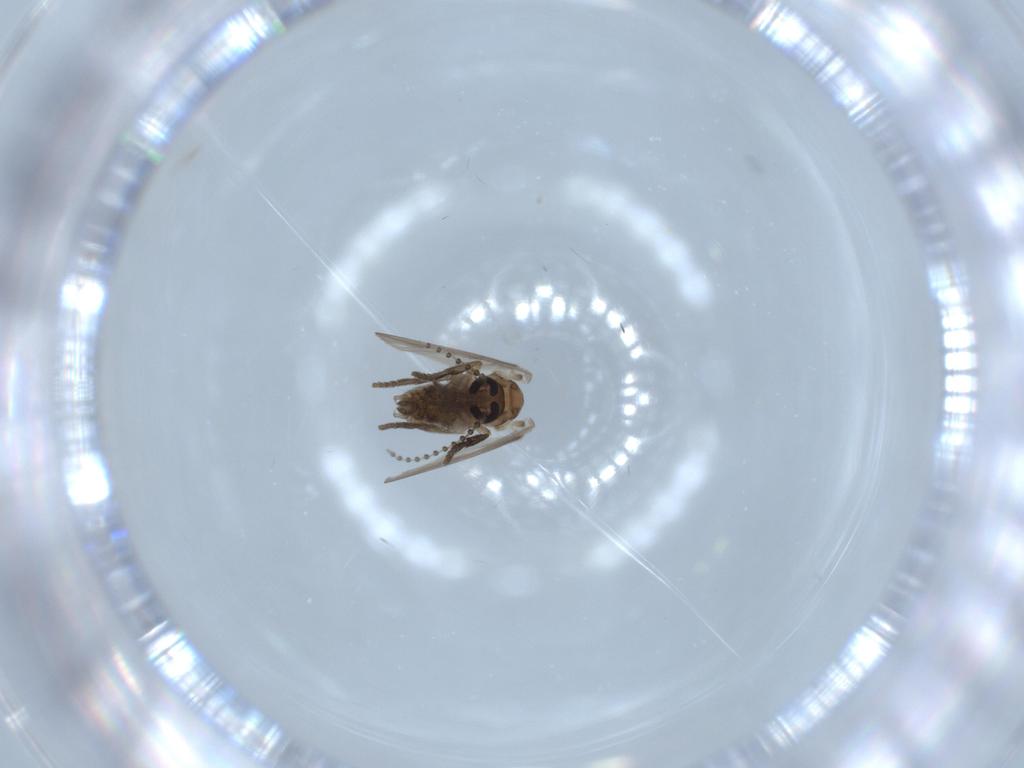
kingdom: Animalia
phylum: Arthropoda
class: Insecta
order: Diptera
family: Psychodidae
